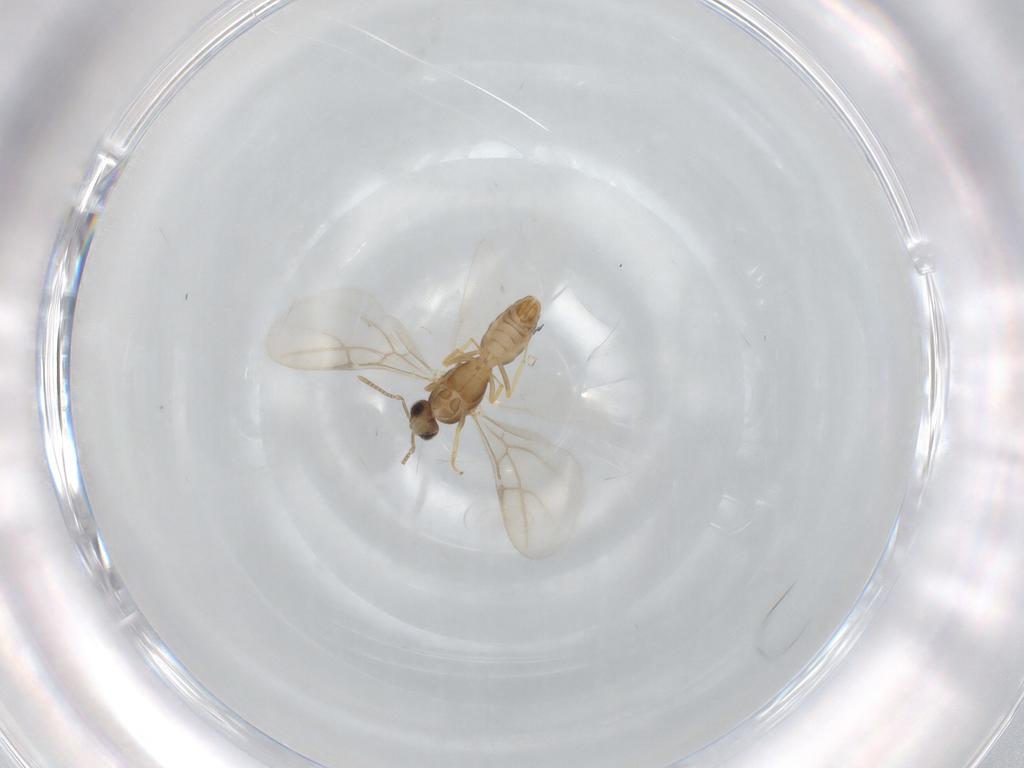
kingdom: Animalia
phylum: Arthropoda
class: Insecta
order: Hymenoptera
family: Formicidae
